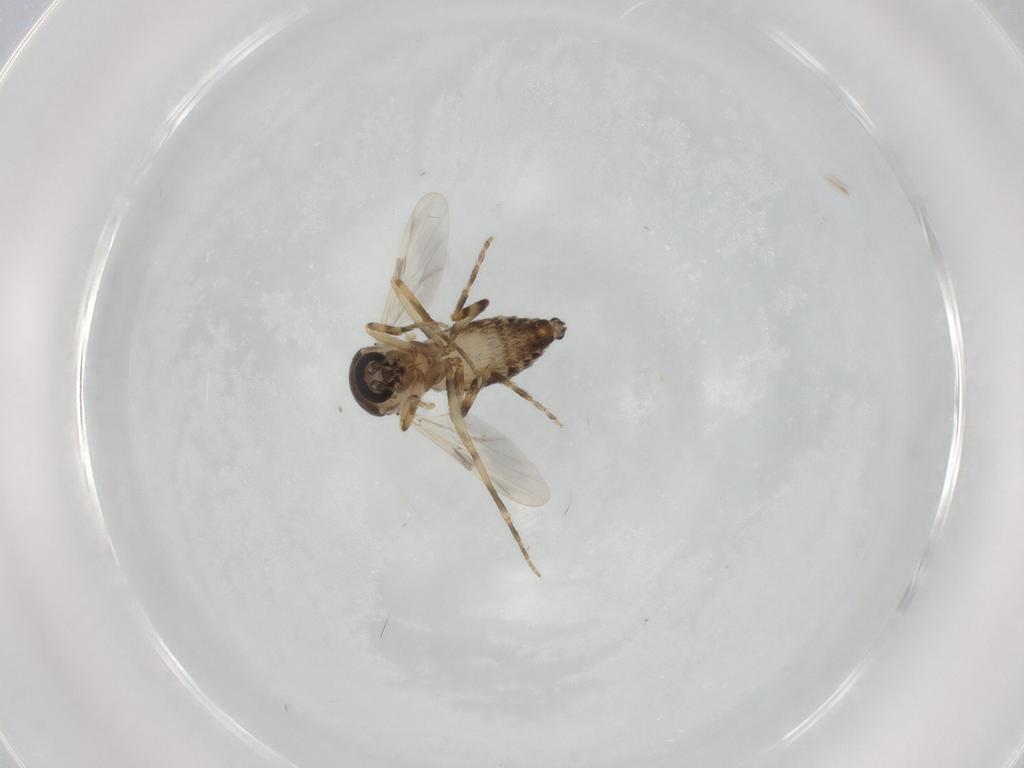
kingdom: Animalia
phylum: Arthropoda
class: Insecta
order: Diptera
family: Ceratopogonidae
